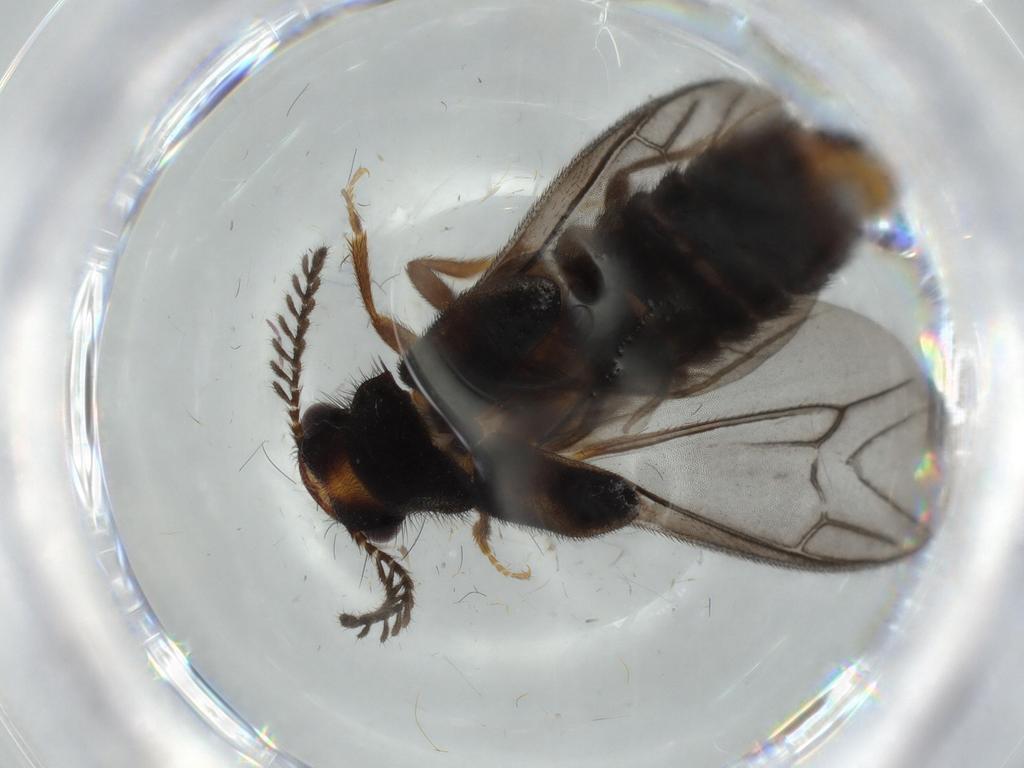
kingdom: Animalia
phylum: Arthropoda
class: Insecta
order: Coleoptera
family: Phengodidae
